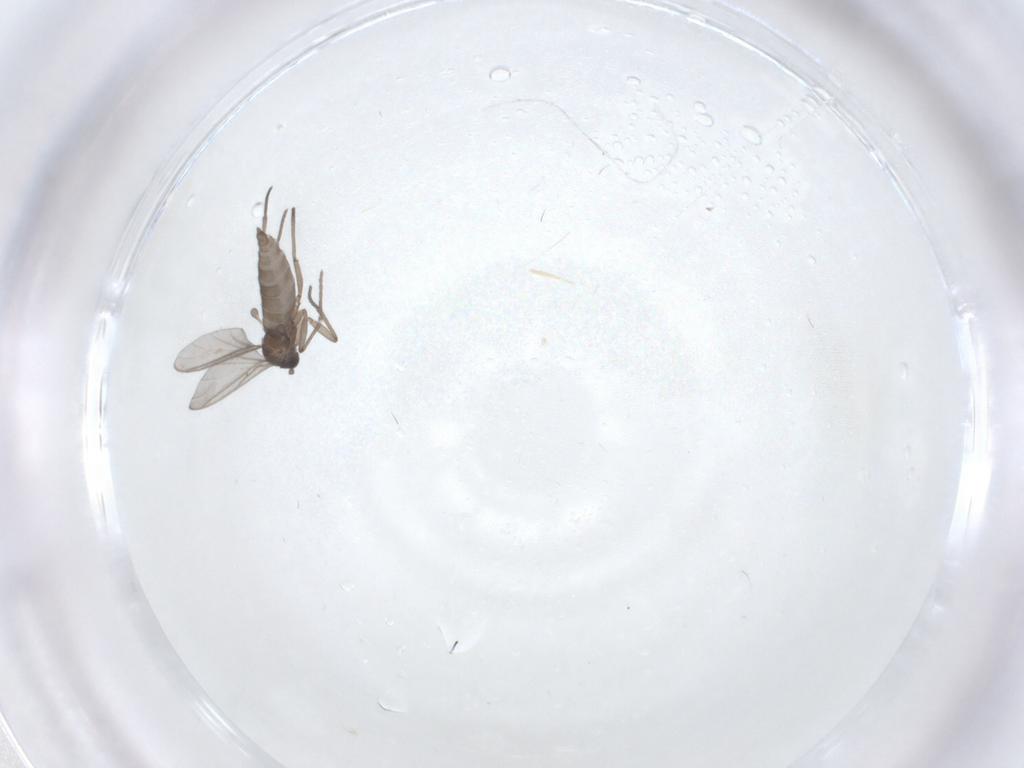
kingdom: Animalia
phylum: Arthropoda
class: Insecta
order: Diptera
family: Sciaridae
